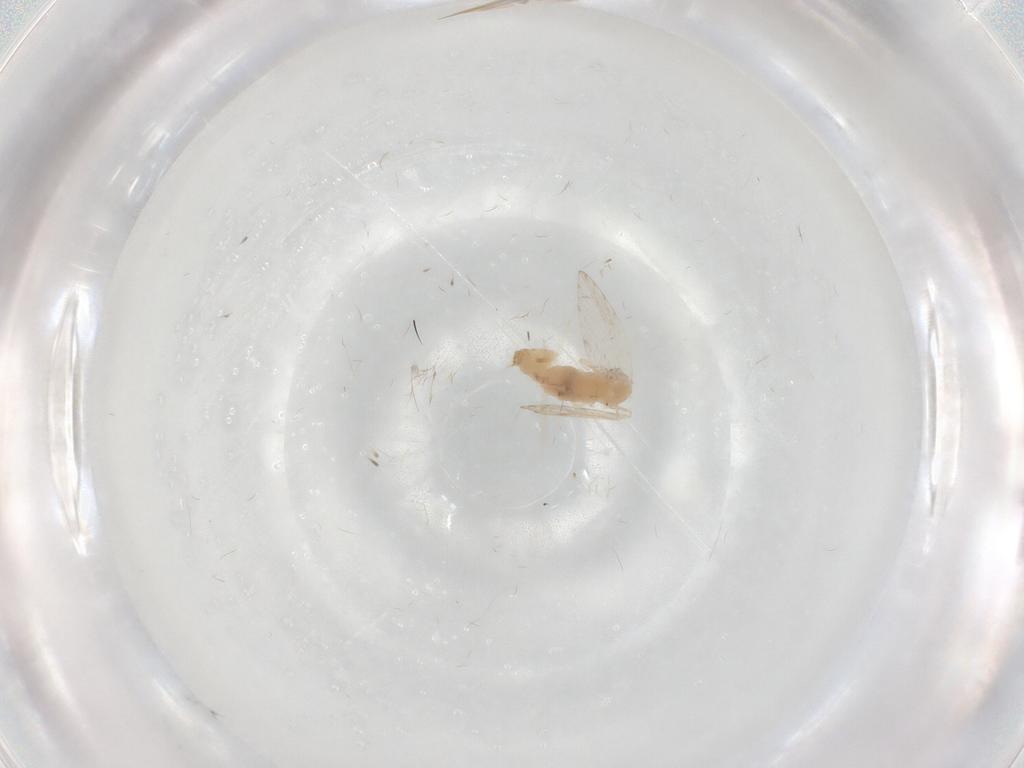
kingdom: Animalia
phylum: Arthropoda
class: Insecta
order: Diptera
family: Psychodidae
